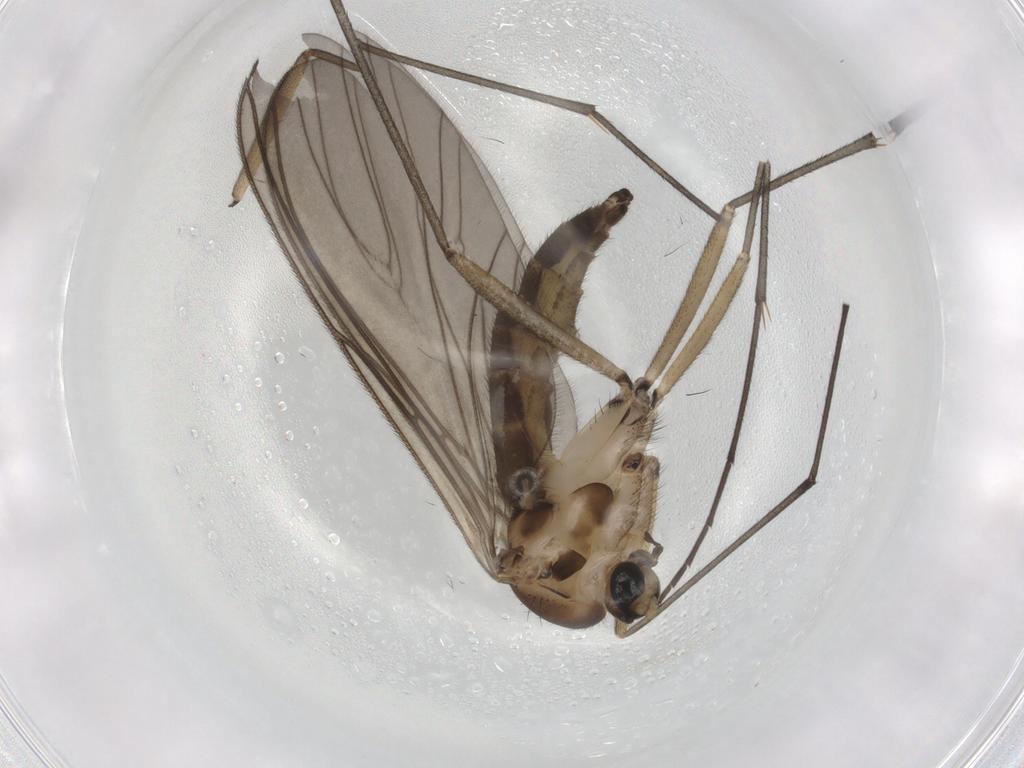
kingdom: Animalia
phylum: Arthropoda
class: Insecta
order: Diptera
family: Sciaridae
